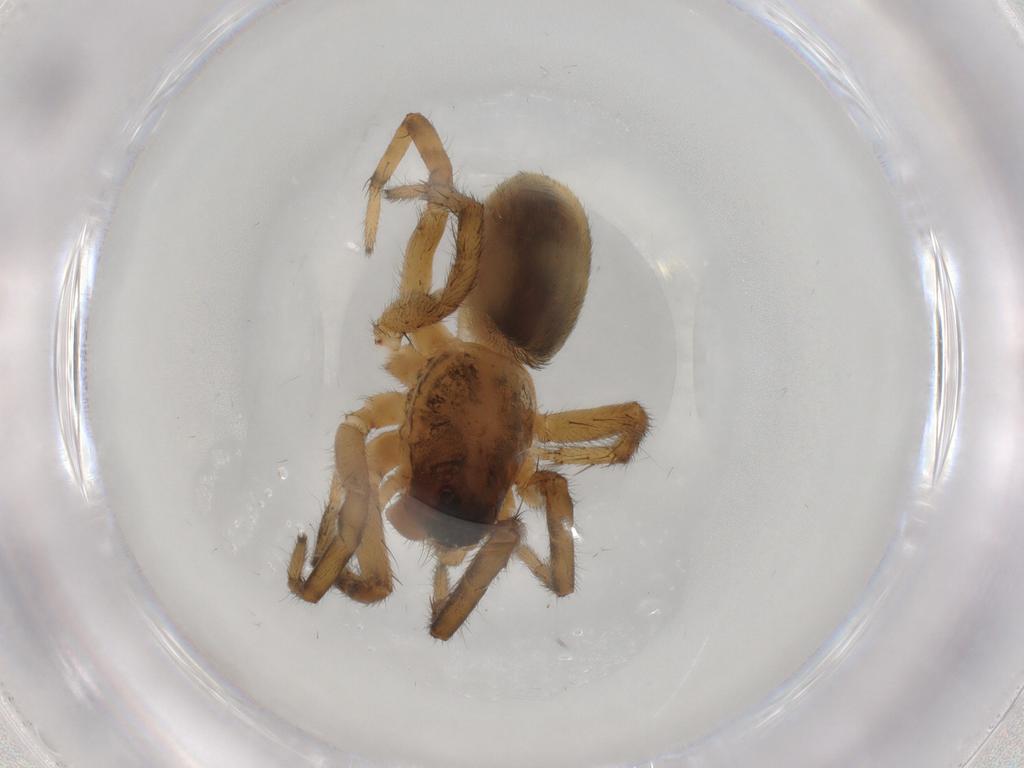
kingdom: Animalia
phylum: Arthropoda
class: Arachnida
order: Araneae
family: Lycosidae
